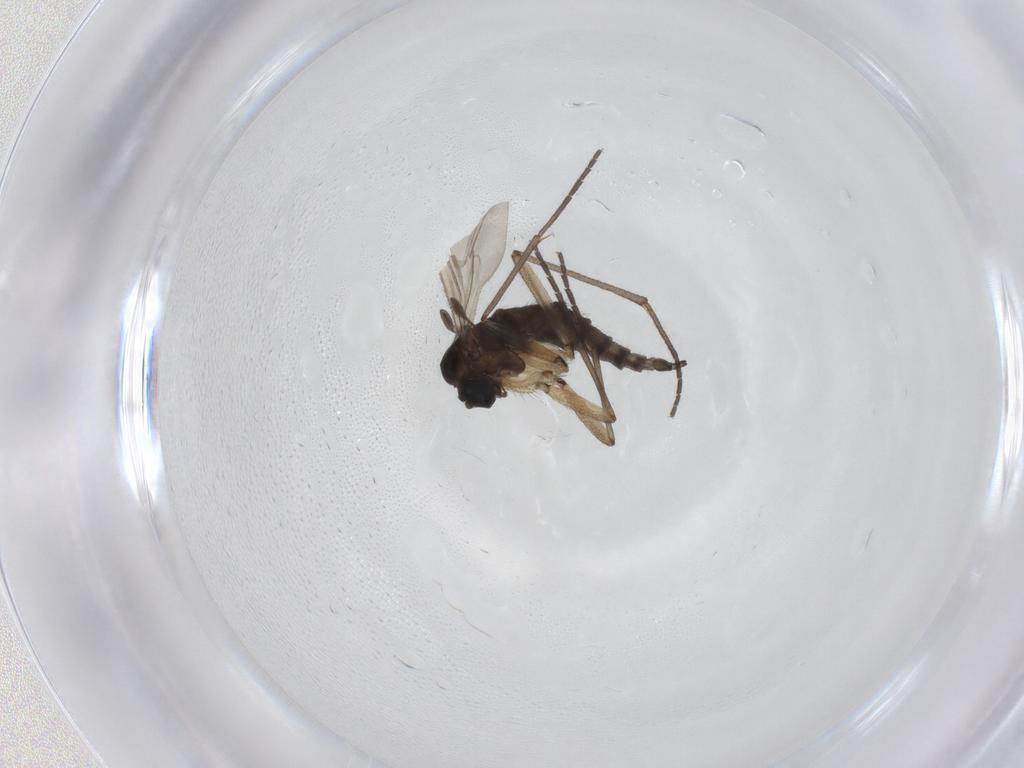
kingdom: Animalia
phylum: Arthropoda
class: Insecta
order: Diptera
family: Sciaridae
